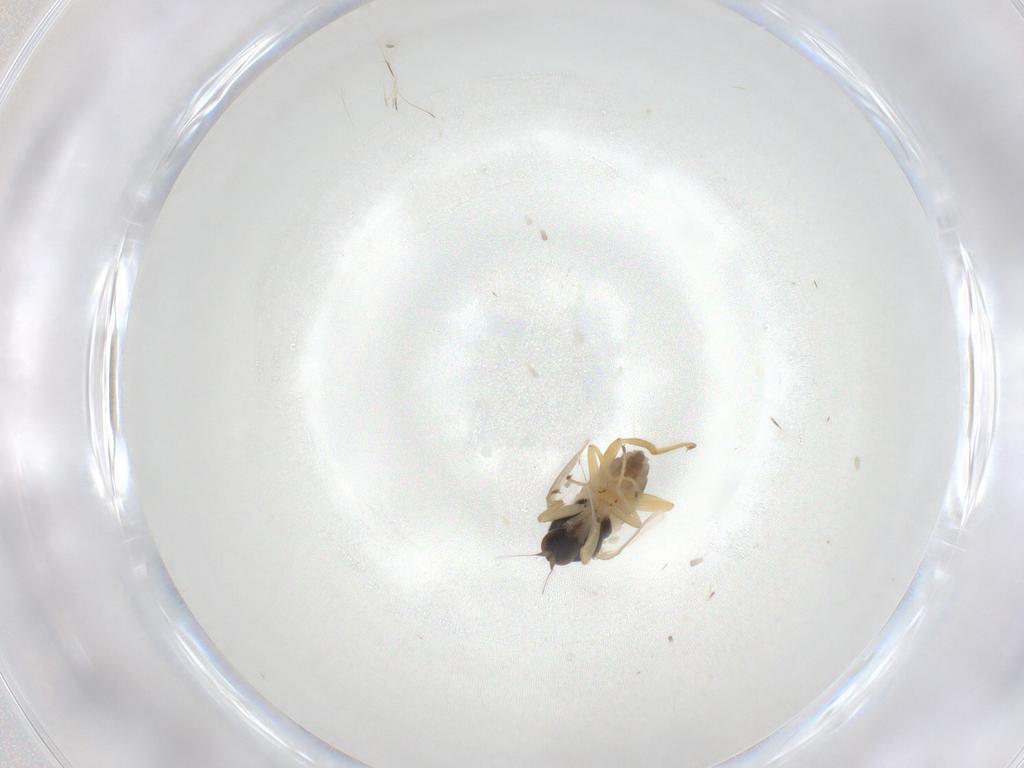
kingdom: Animalia
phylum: Arthropoda
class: Insecta
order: Diptera
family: Hybotidae
